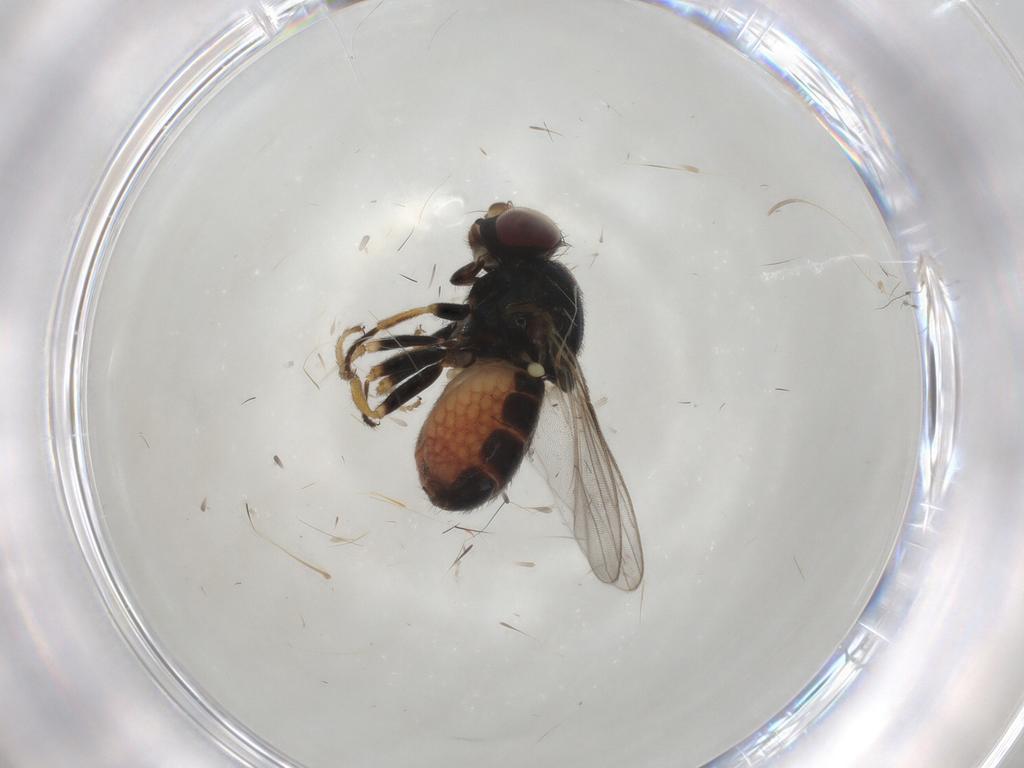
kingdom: Animalia
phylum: Arthropoda
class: Insecta
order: Diptera
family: Chloropidae
